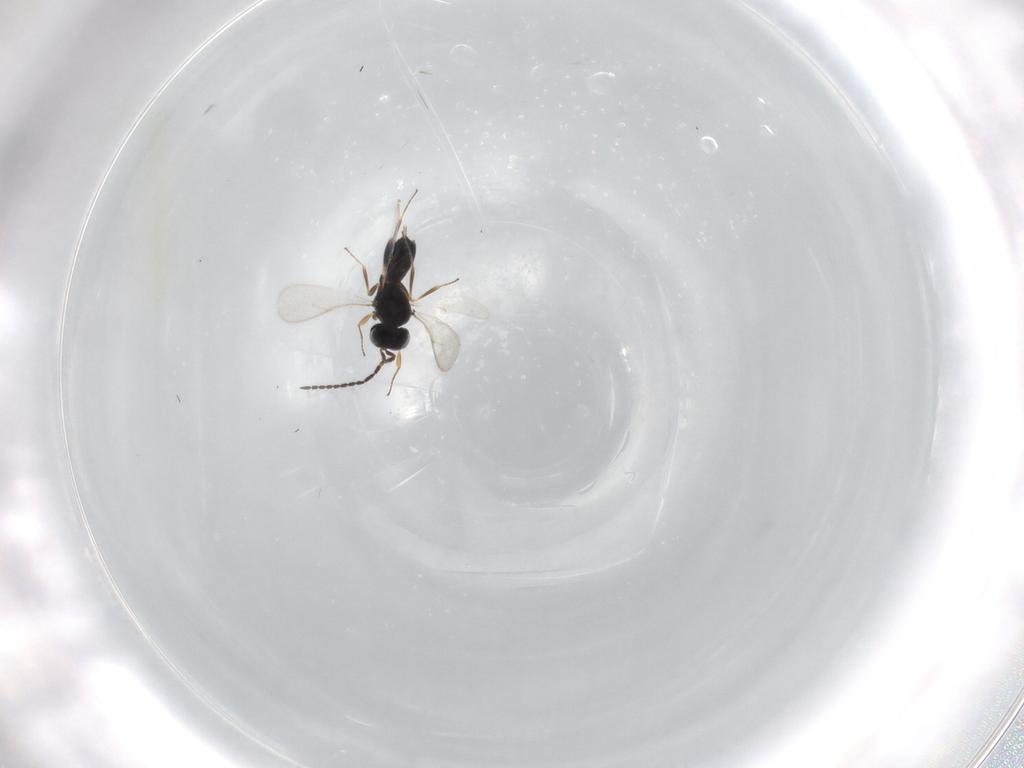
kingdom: Animalia
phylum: Arthropoda
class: Insecta
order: Hymenoptera
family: Scelionidae
